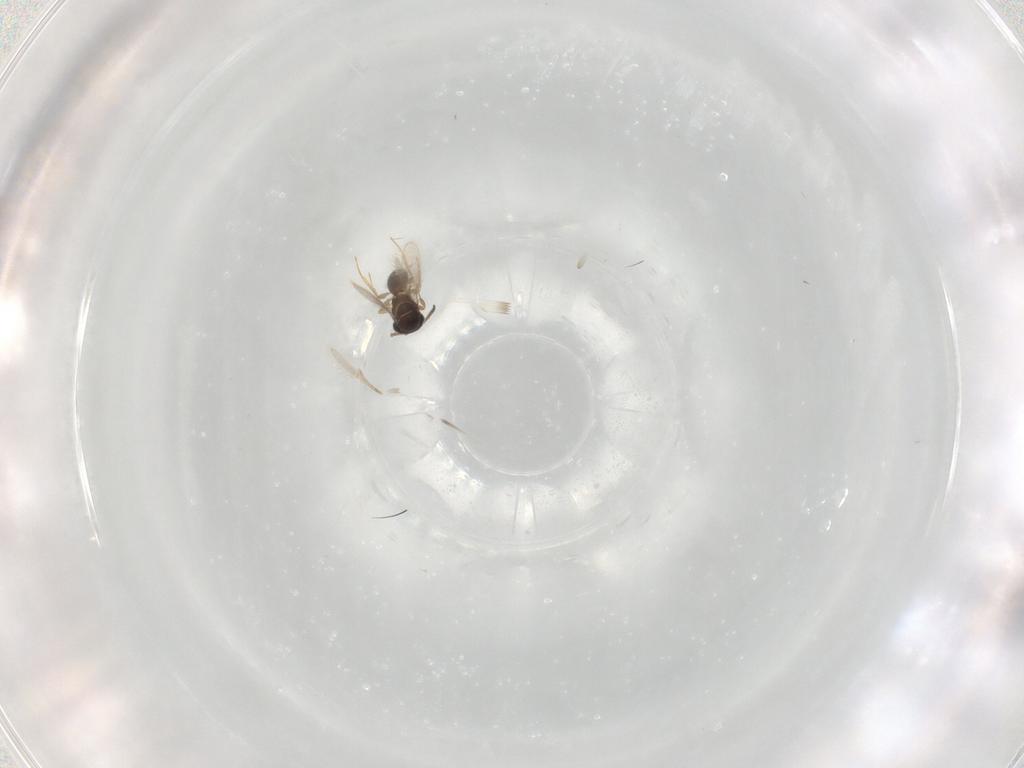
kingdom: Animalia
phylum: Arthropoda
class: Insecta
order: Hymenoptera
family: Scelionidae
